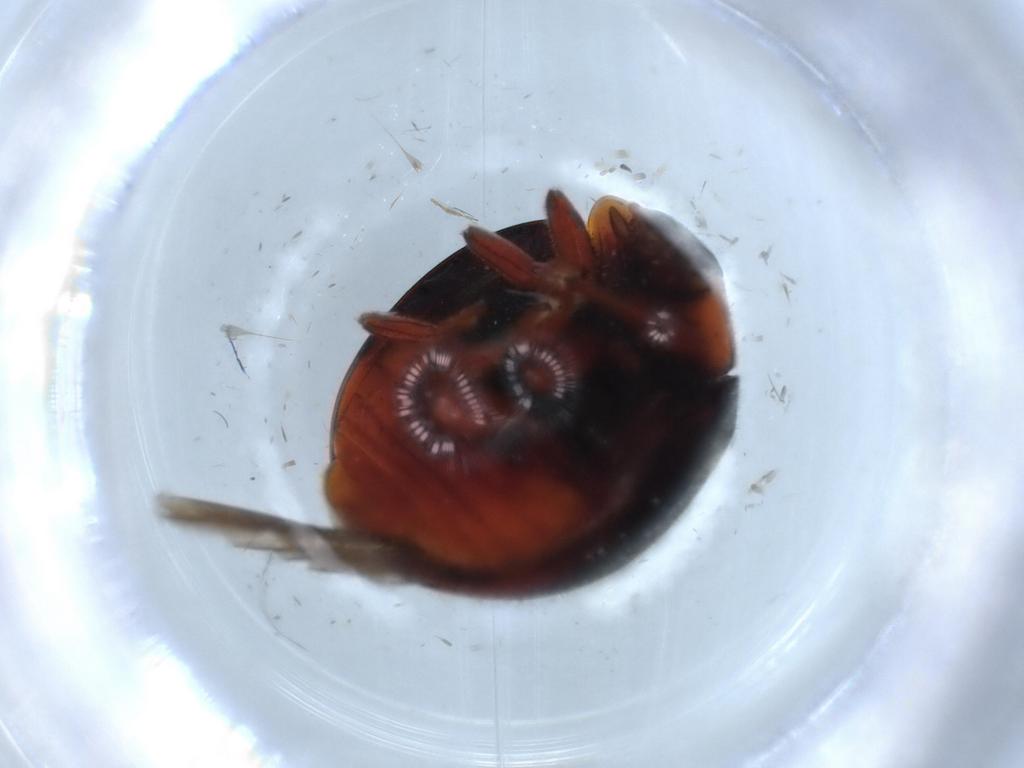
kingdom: Animalia
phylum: Arthropoda
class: Insecta
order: Coleoptera
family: Coccinellidae
